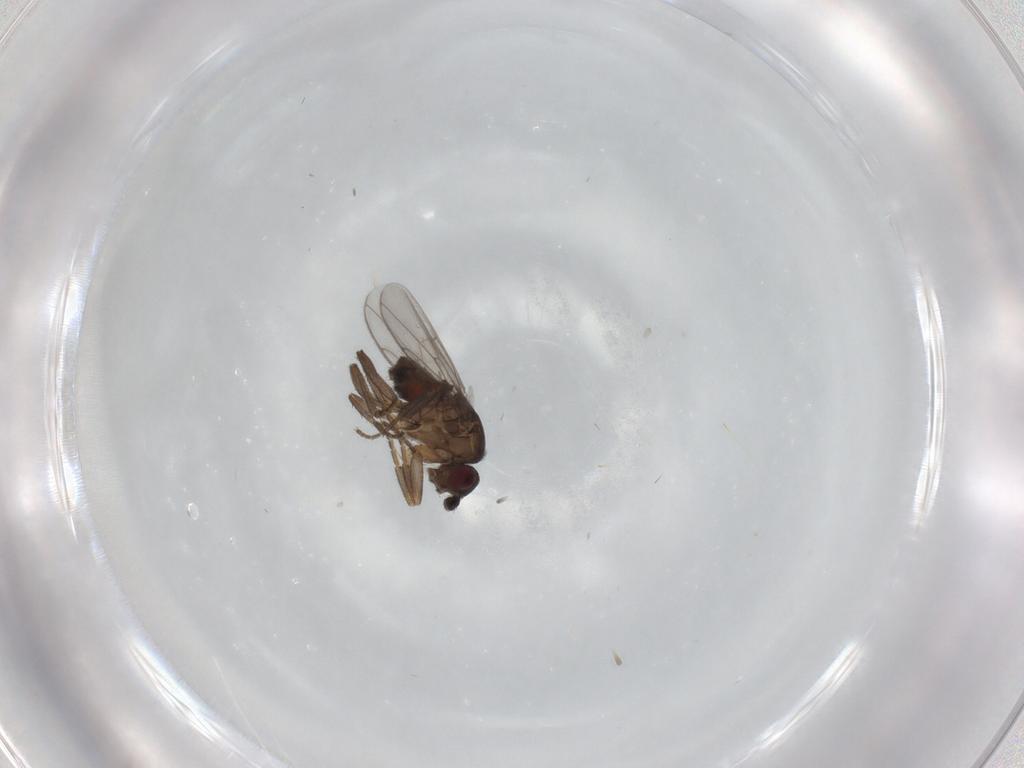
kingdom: Animalia
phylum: Arthropoda
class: Insecta
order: Diptera
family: Sphaeroceridae
